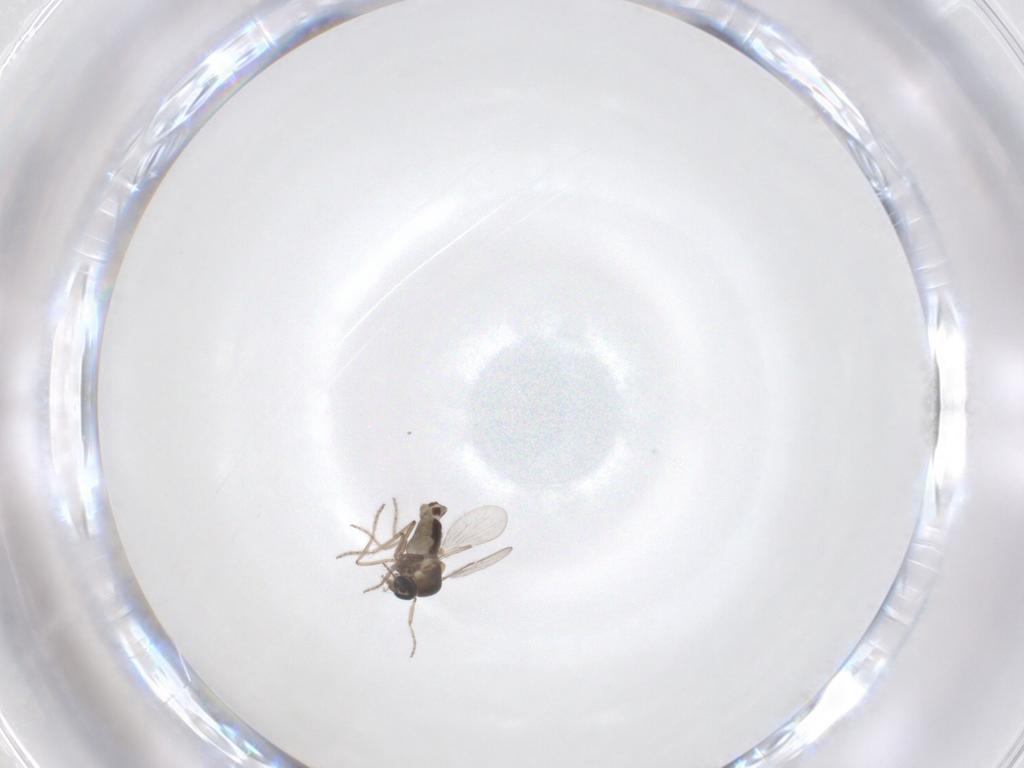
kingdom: Animalia
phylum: Arthropoda
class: Insecta
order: Diptera
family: Ceratopogonidae
